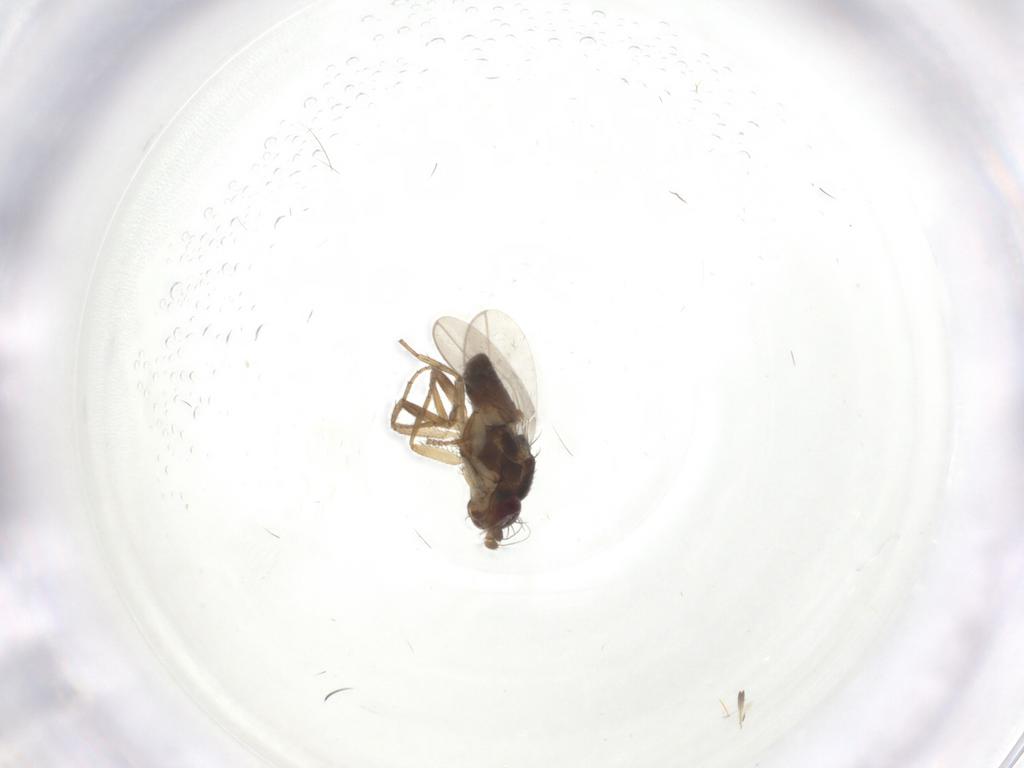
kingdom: Animalia
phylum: Arthropoda
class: Insecta
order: Diptera
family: Sphaeroceridae
